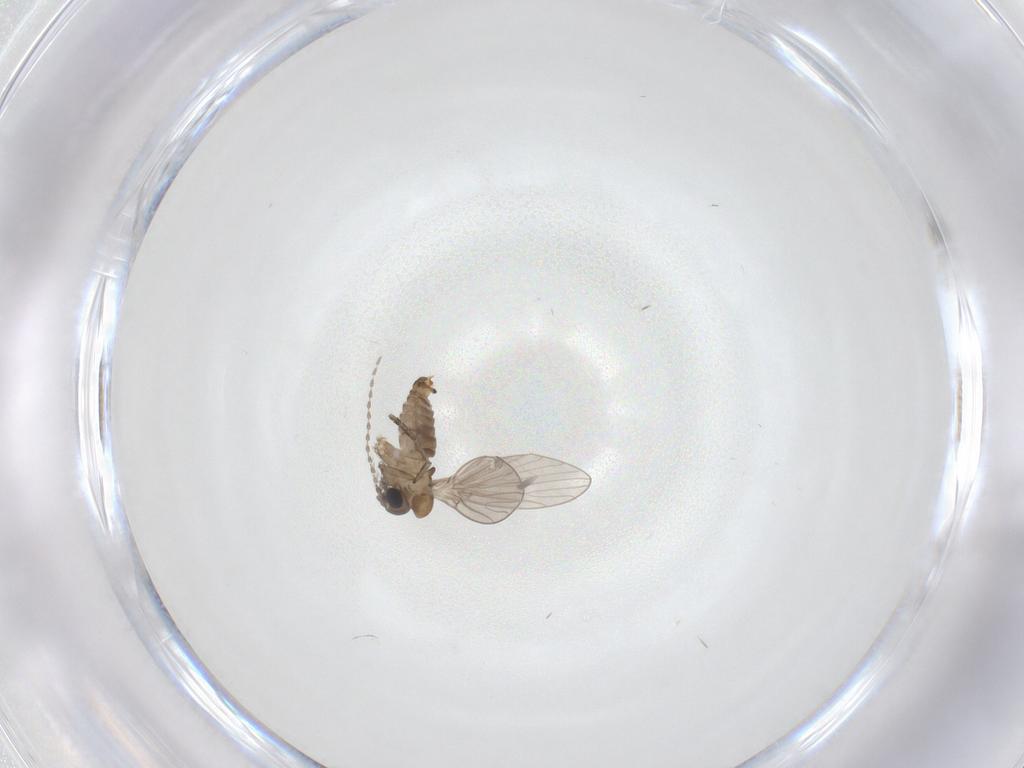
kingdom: Animalia
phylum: Arthropoda
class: Insecta
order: Diptera
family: Psychodidae
